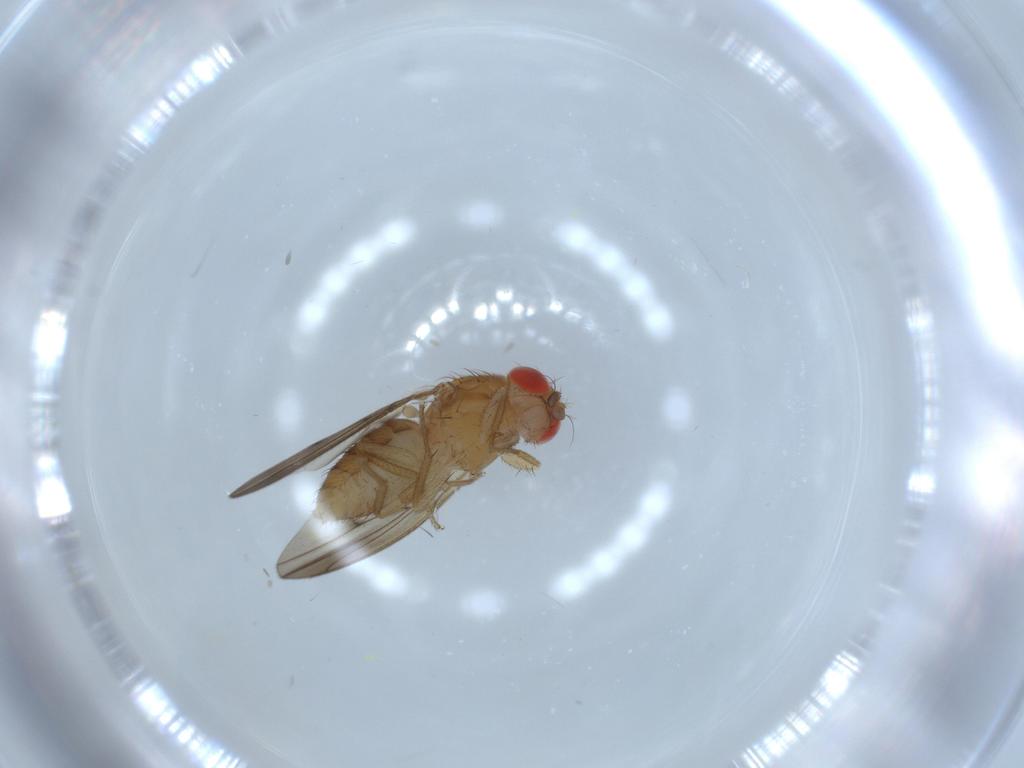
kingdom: Animalia
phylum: Arthropoda
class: Insecta
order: Diptera
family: Drosophilidae
